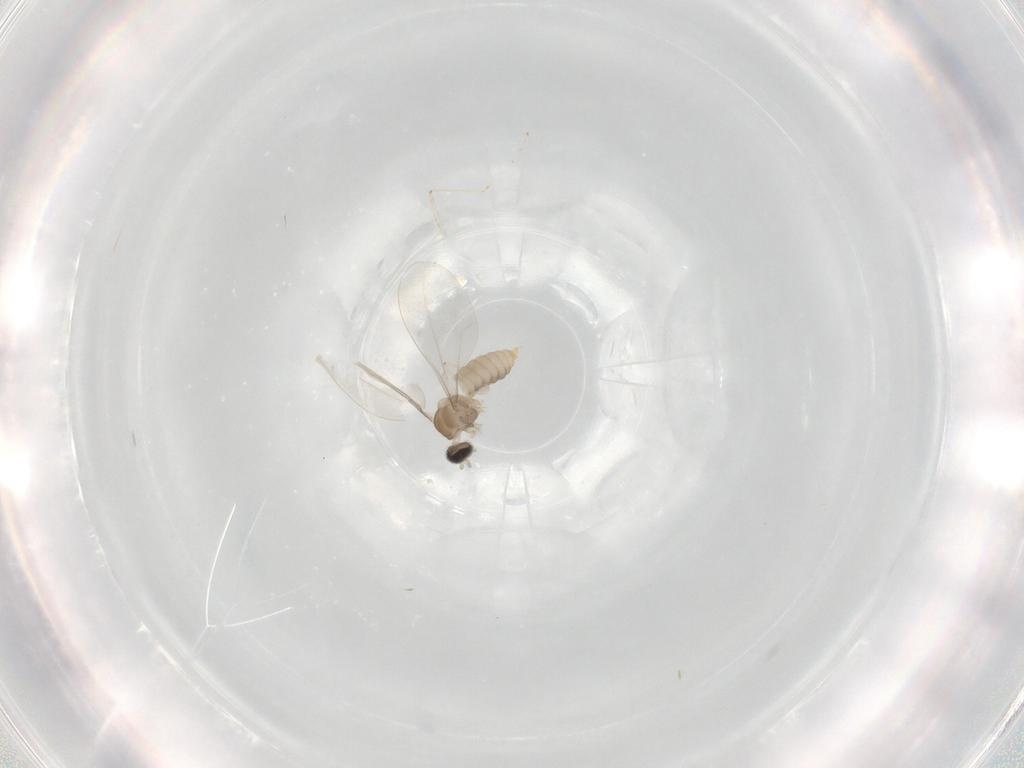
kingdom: Animalia
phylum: Arthropoda
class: Insecta
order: Diptera
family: Cecidomyiidae
